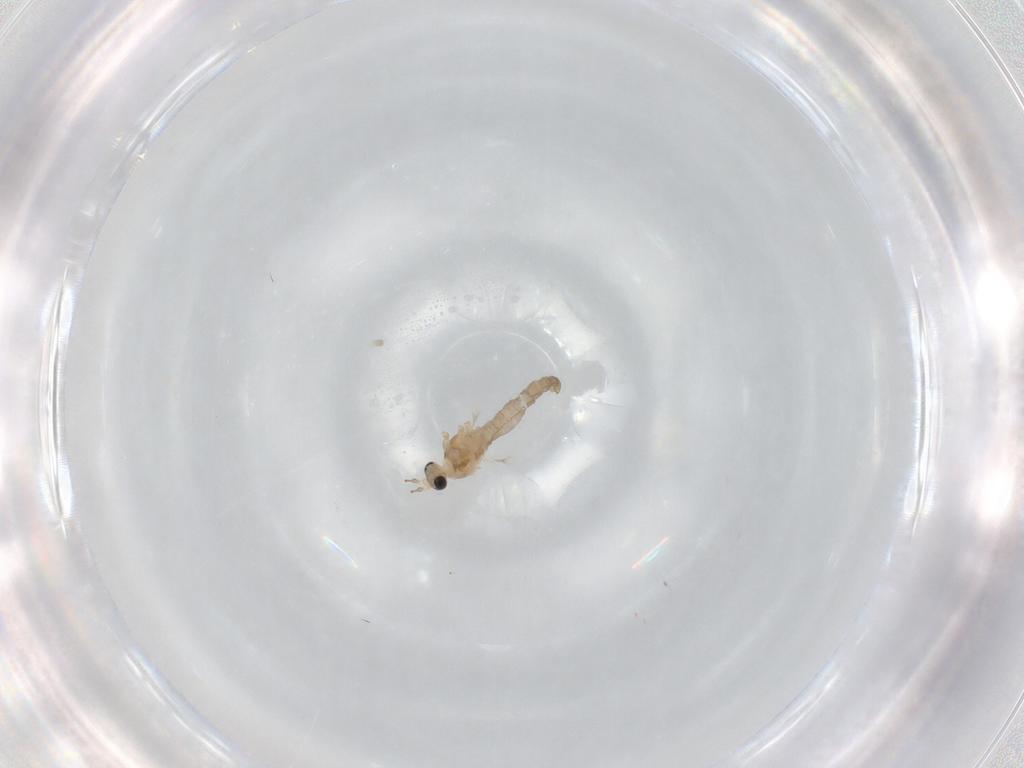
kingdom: Animalia
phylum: Arthropoda
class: Insecta
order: Diptera
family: Cecidomyiidae
